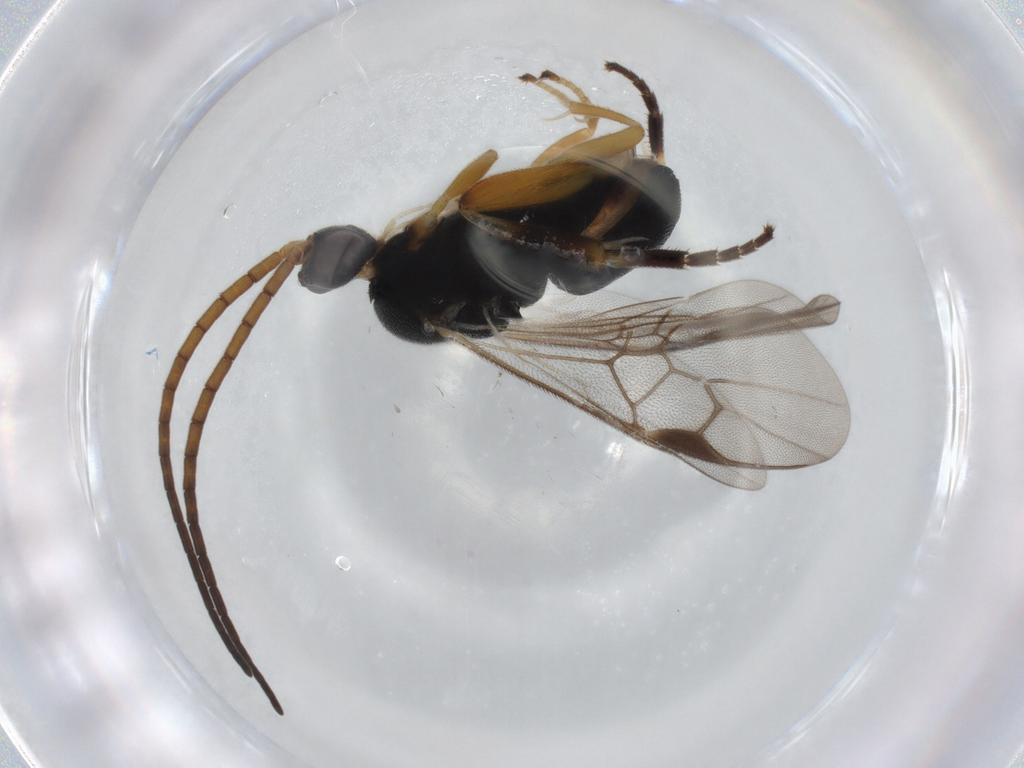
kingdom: Animalia
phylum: Arthropoda
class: Insecta
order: Hymenoptera
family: Braconidae
